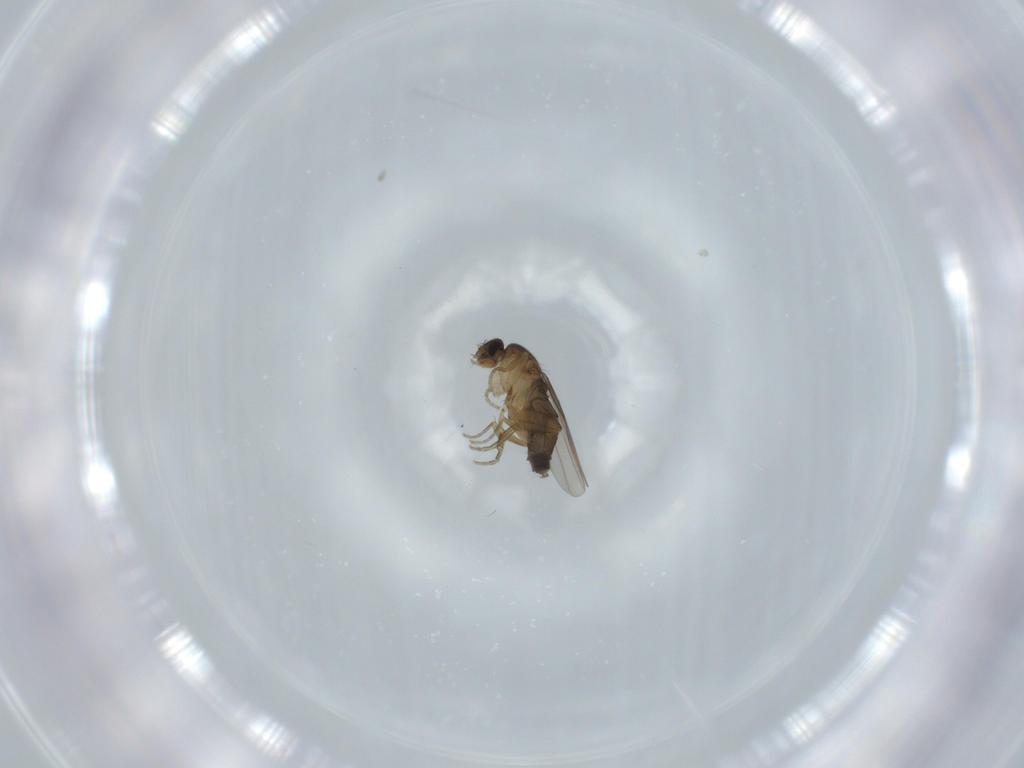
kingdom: Animalia
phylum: Arthropoda
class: Insecta
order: Diptera
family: Phoridae
